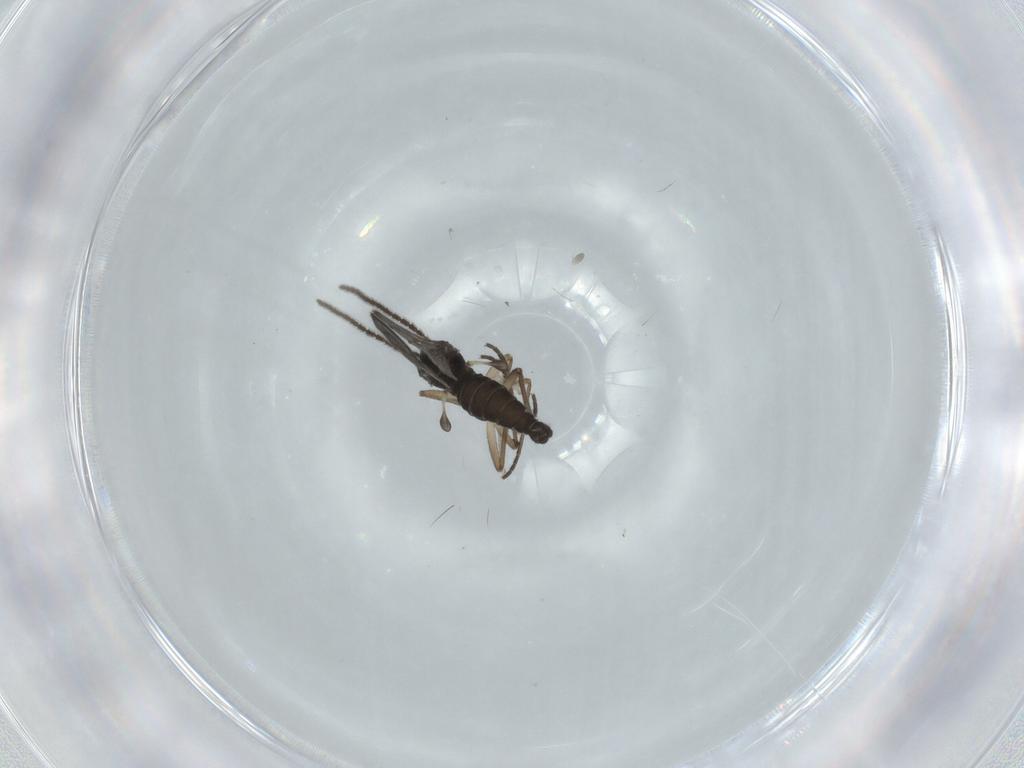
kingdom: Animalia
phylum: Arthropoda
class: Insecta
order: Diptera
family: Sciaridae
